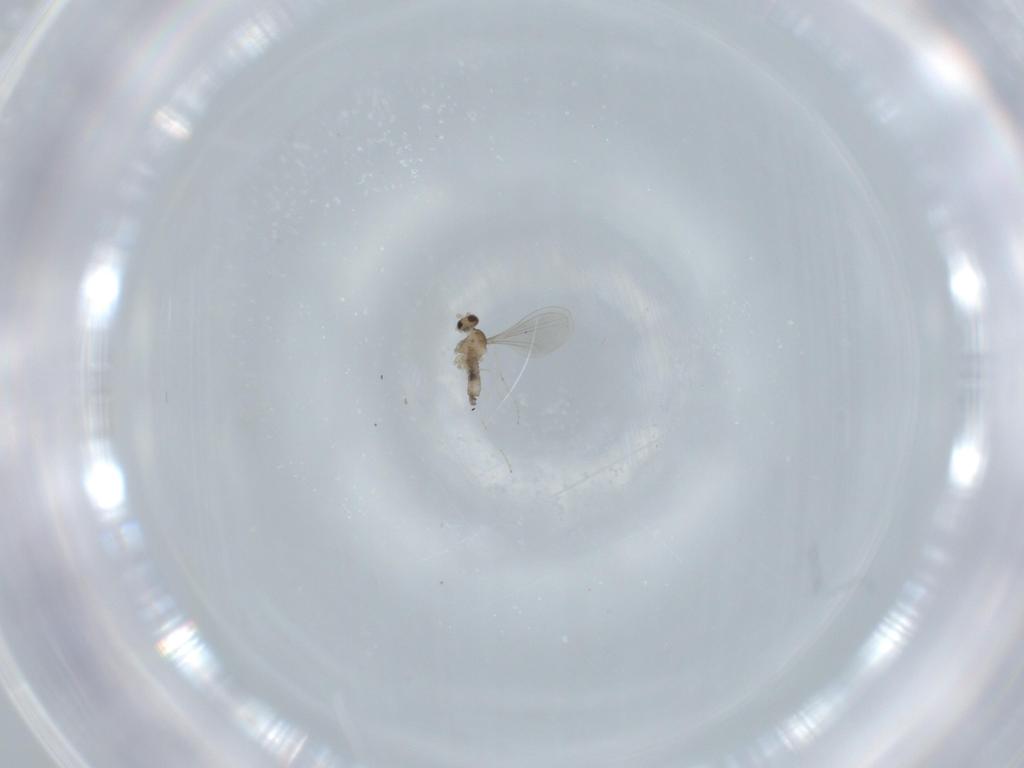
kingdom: Animalia
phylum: Arthropoda
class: Insecta
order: Diptera
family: Cecidomyiidae
